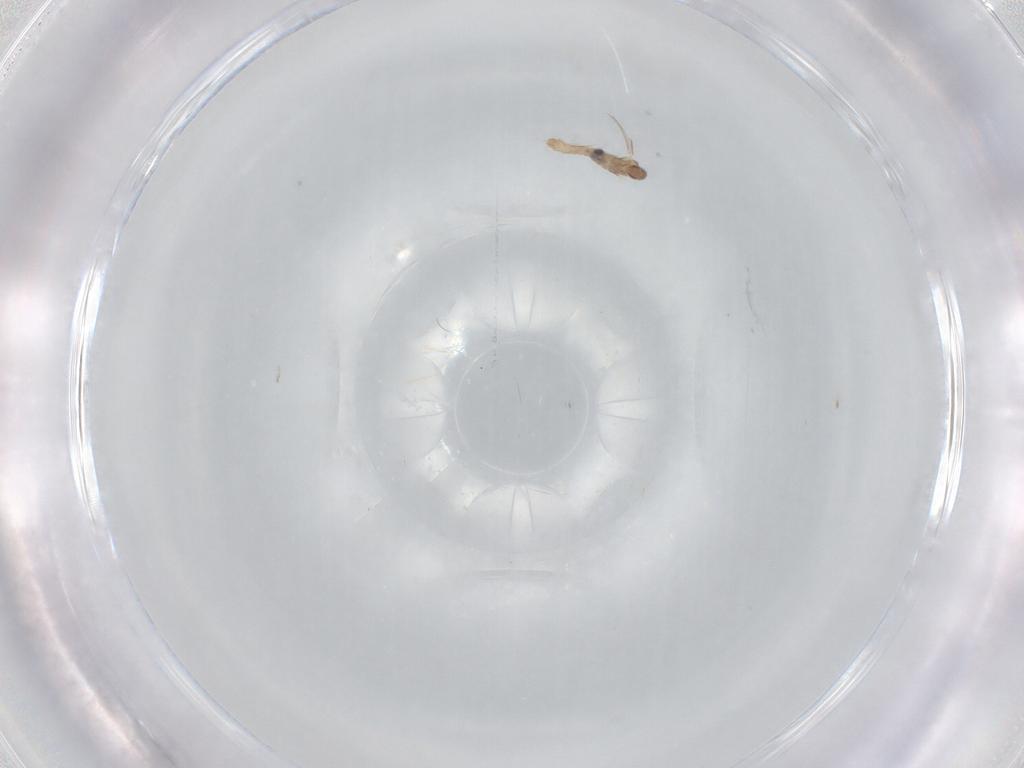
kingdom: Animalia
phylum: Arthropoda
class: Insecta
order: Diptera
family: Cecidomyiidae
